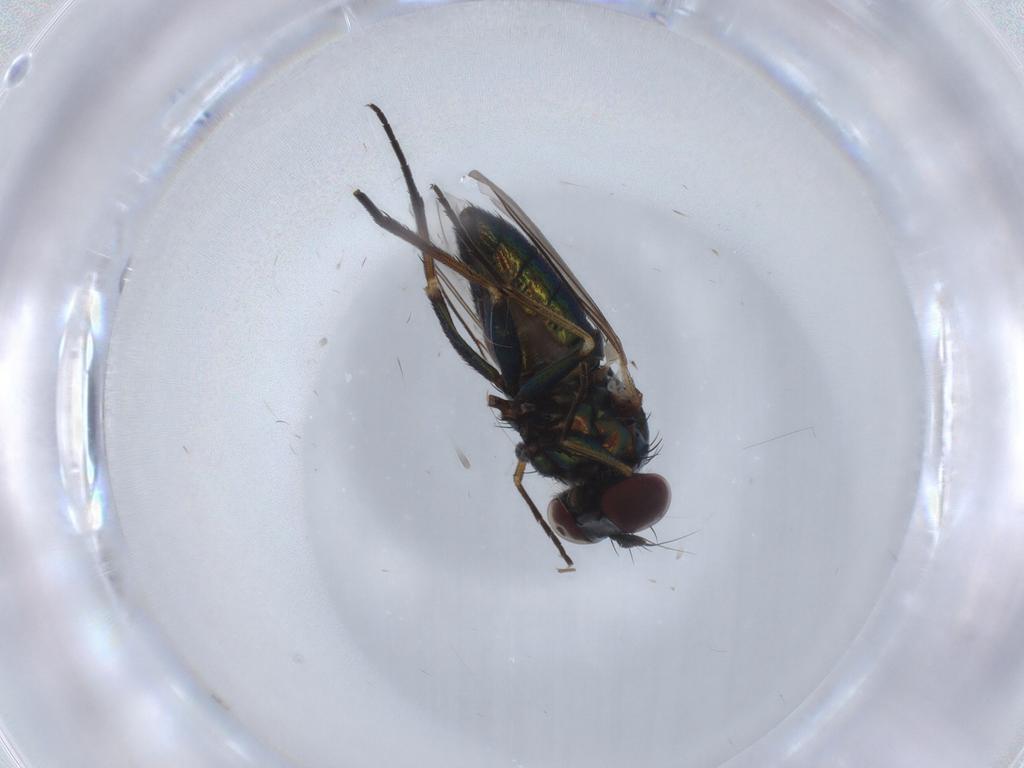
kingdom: Animalia
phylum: Arthropoda
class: Insecta
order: Diptera
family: Dolichopodidae
